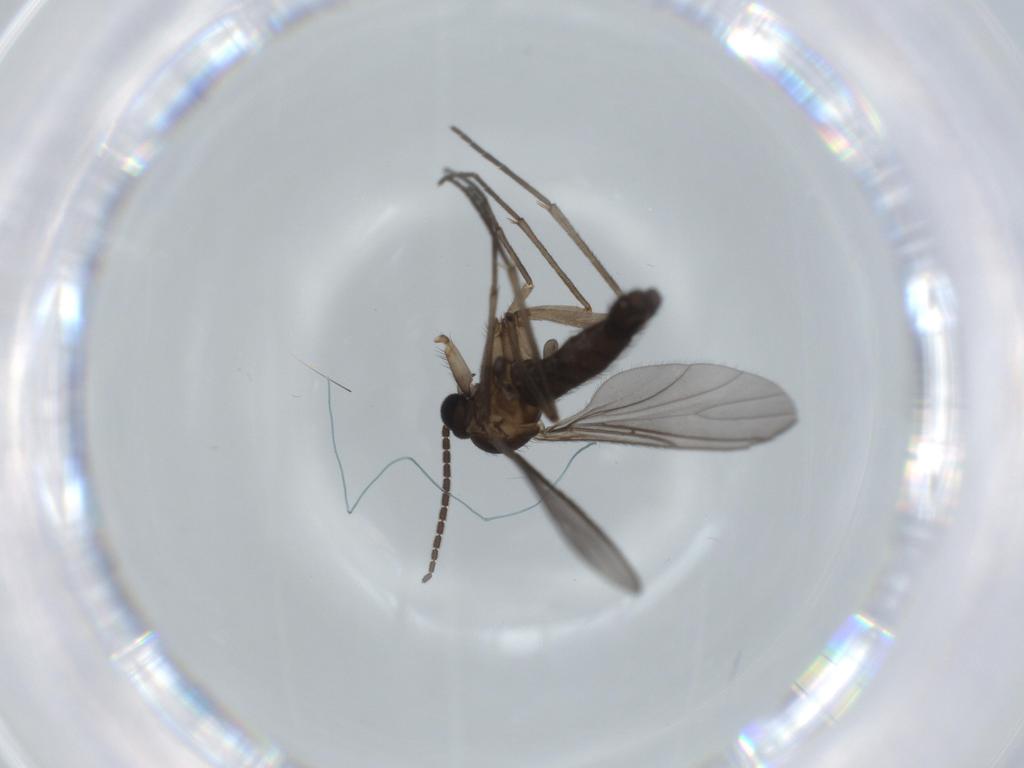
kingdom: Animalia
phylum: Arthropoda
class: Insecta
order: Diptera
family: Sciaridae
